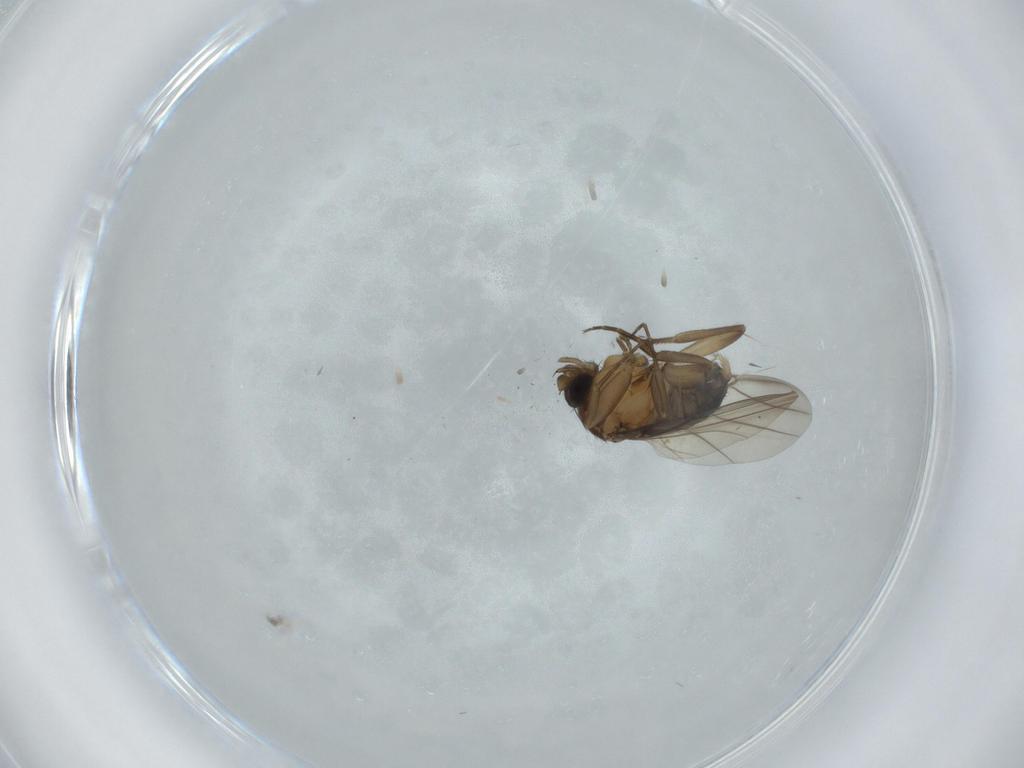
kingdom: Animalia
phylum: Arthropoda
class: Insecta
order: Diptera
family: Phoridae
